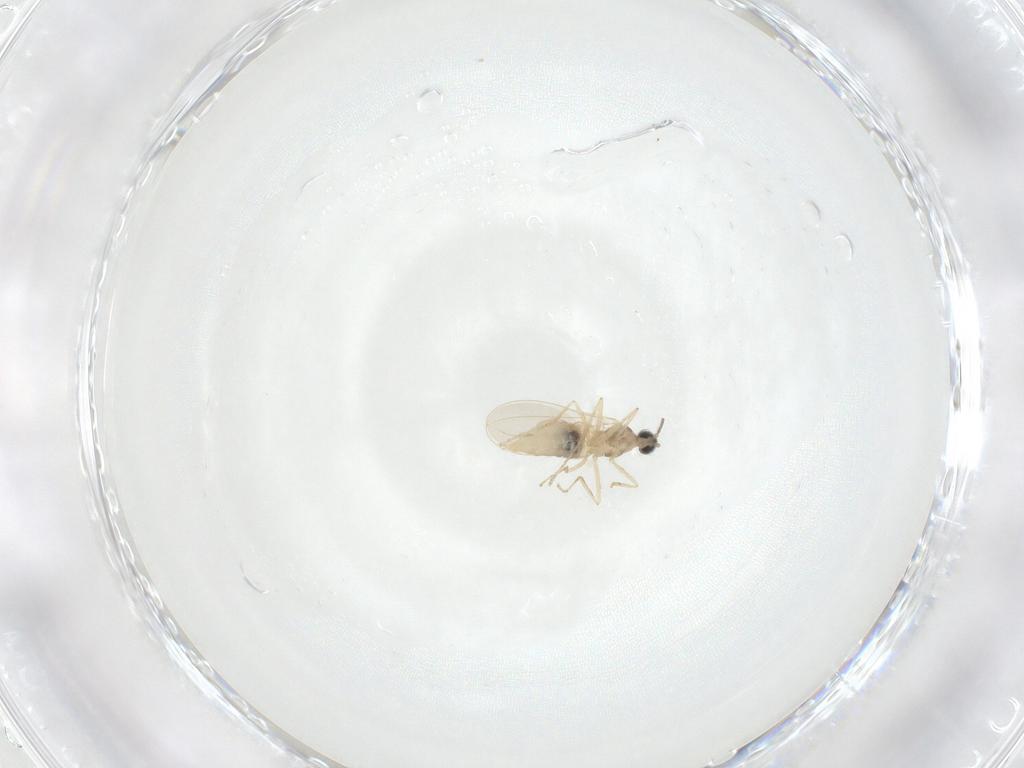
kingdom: Animalia
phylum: Arthropoda
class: Insecta
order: Diptera
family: Cecidomyiidae
